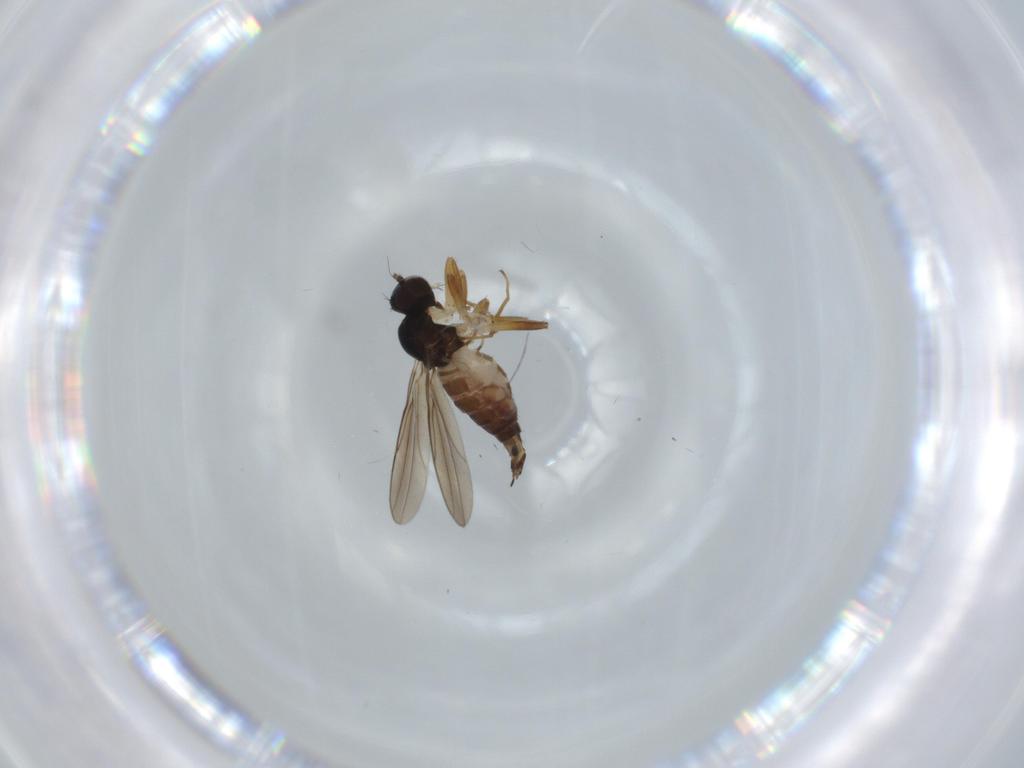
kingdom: Animalia
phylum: Arthropoda
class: Insecta
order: Diptera
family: Hybotidae
